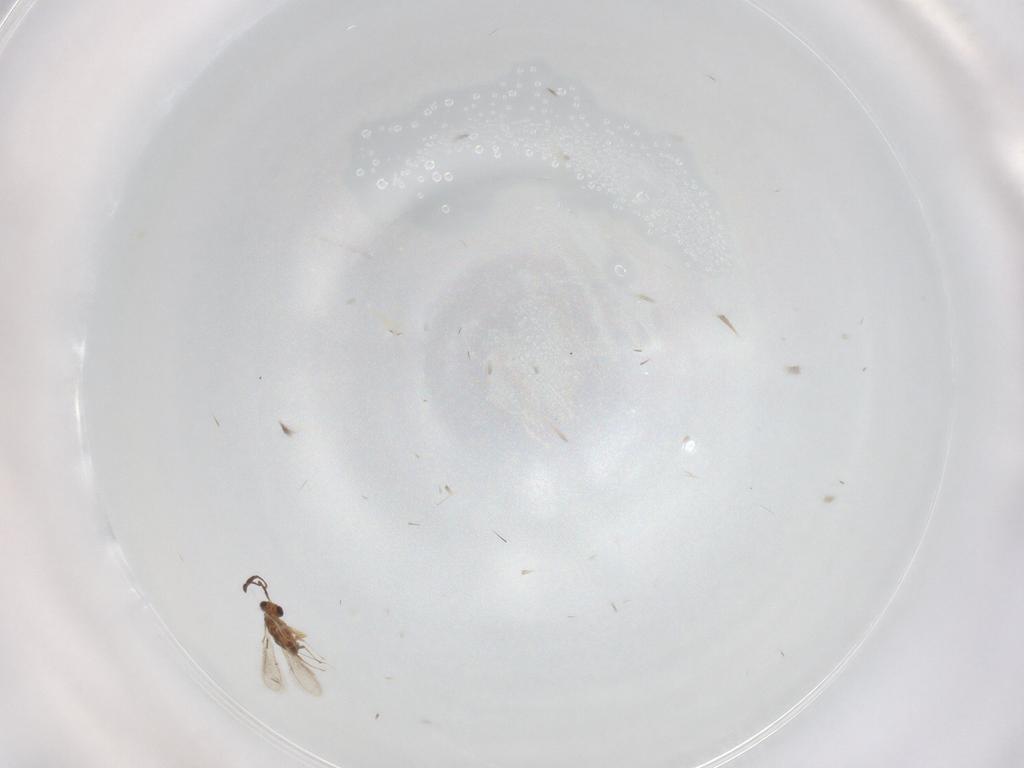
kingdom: Animalia
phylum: Arthropoda
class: Insecta
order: Hymenoptera
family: Mymaridae
